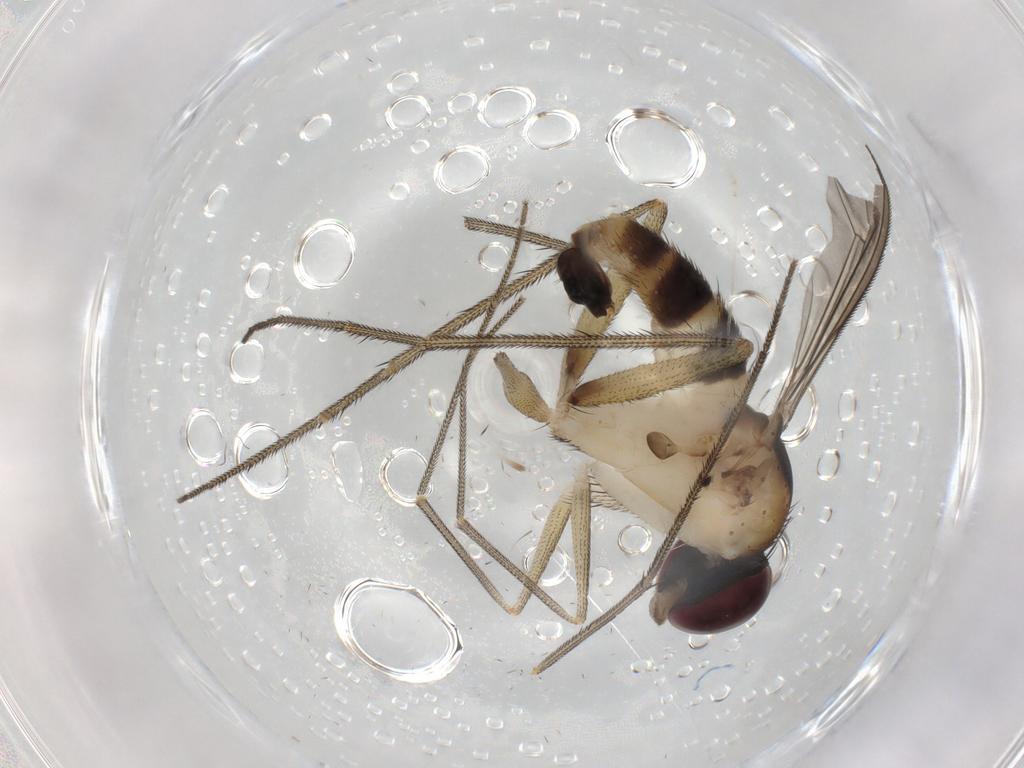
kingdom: Animalia
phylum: Arthropoda
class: Insecta
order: Diptera
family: Dolichopodidae
